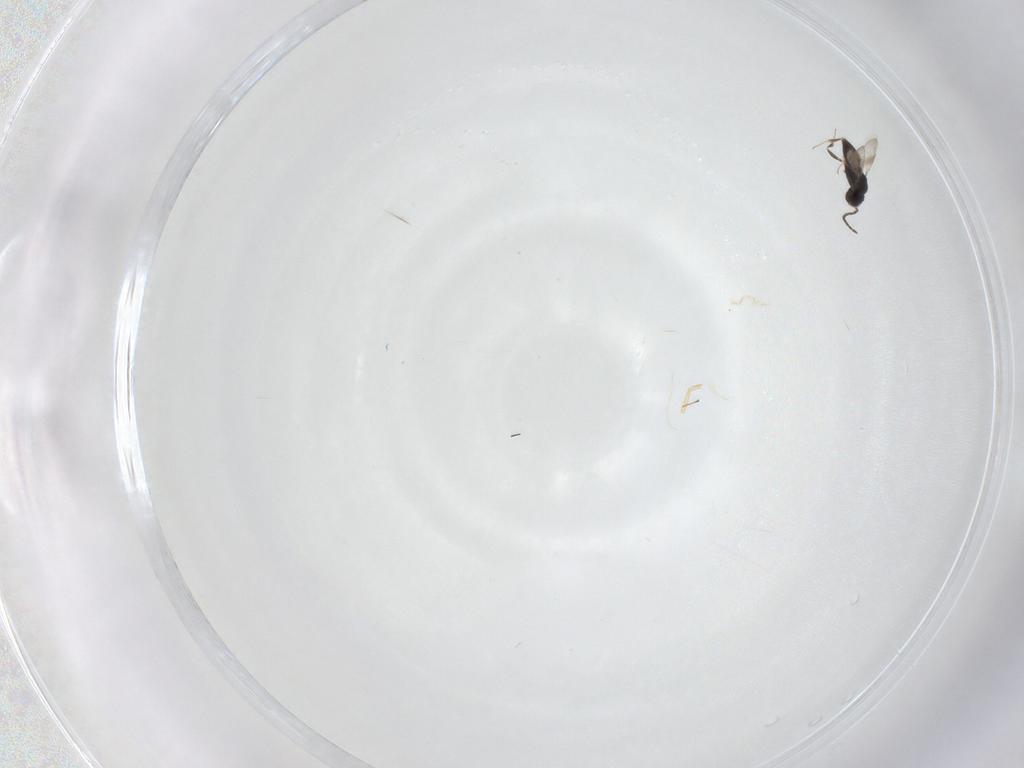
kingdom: Animalia
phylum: Arthropoda
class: Insecta
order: Hymenoptera
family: Ceraphronidae
